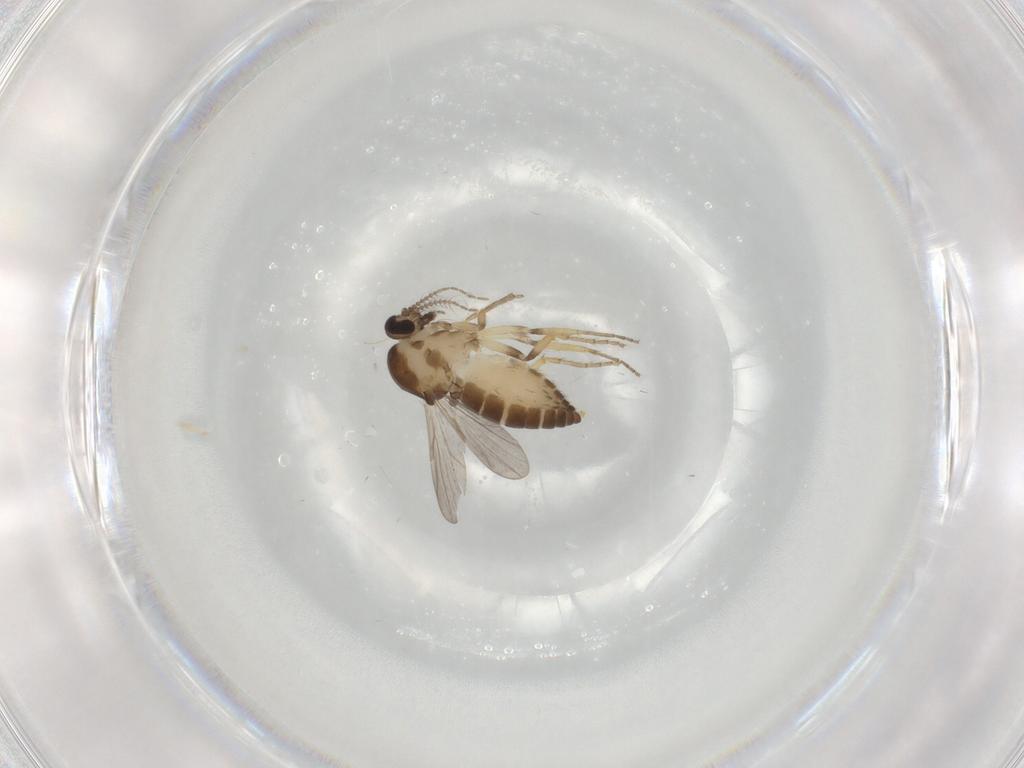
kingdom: Animalia
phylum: Arthropoda
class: Insecta
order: Diptera
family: Ceratopogonidae
